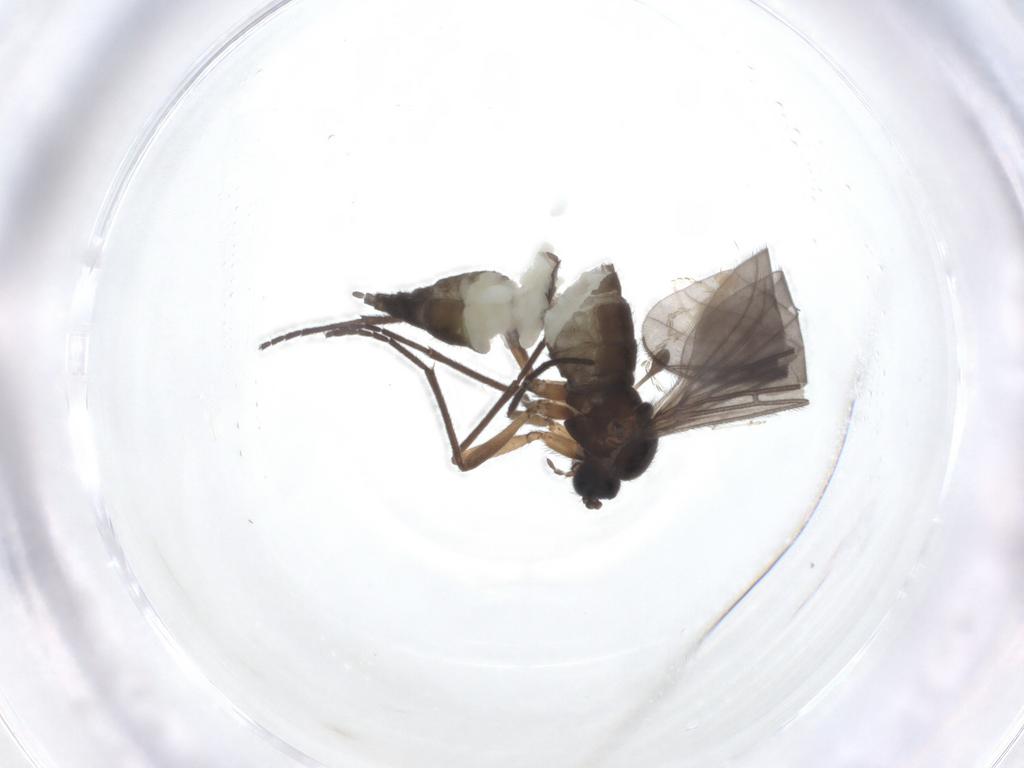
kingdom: Animalia
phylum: Arthropoda
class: Insecta
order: Diptera
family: Sciaridae
